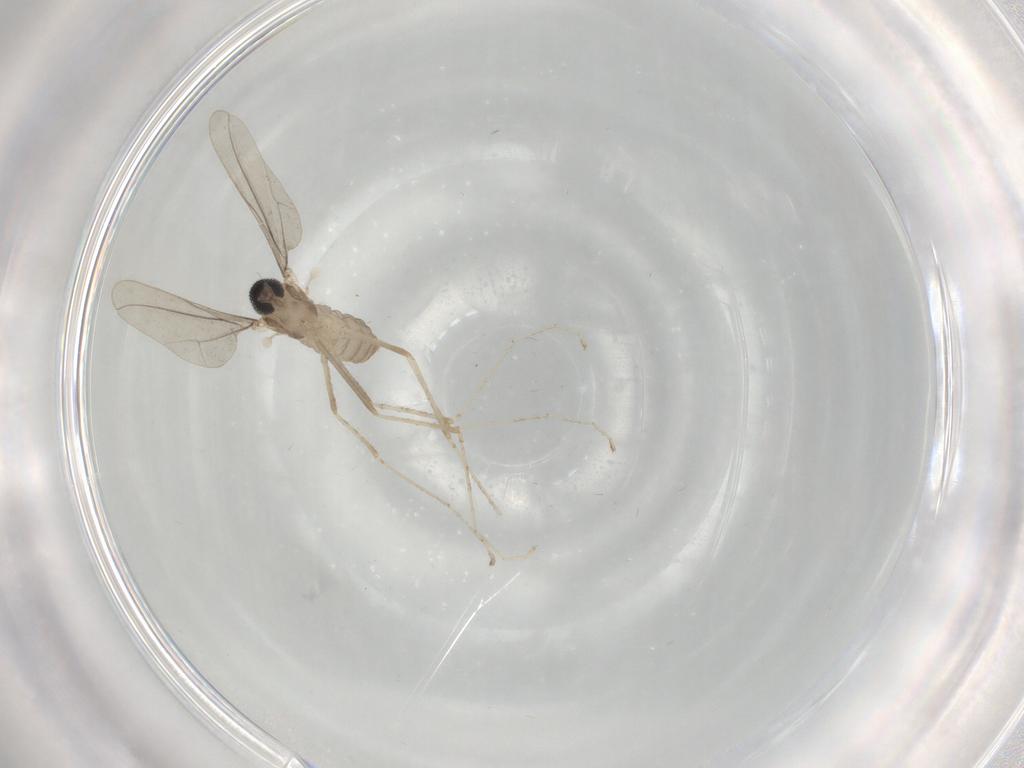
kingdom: Animalia
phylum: Arthropoda
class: Insecta
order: Diptera
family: Cecidomyiidae
